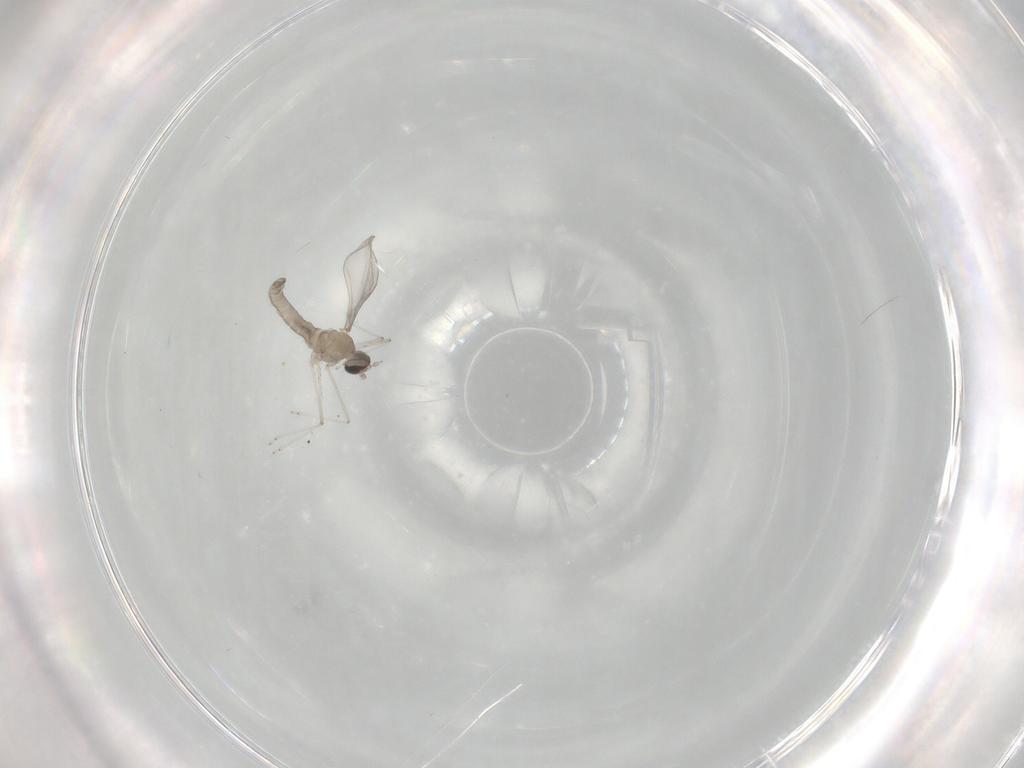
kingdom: Animalia
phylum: Arthropoda
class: Insecta
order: Diptera
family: Cecidomyiidae
